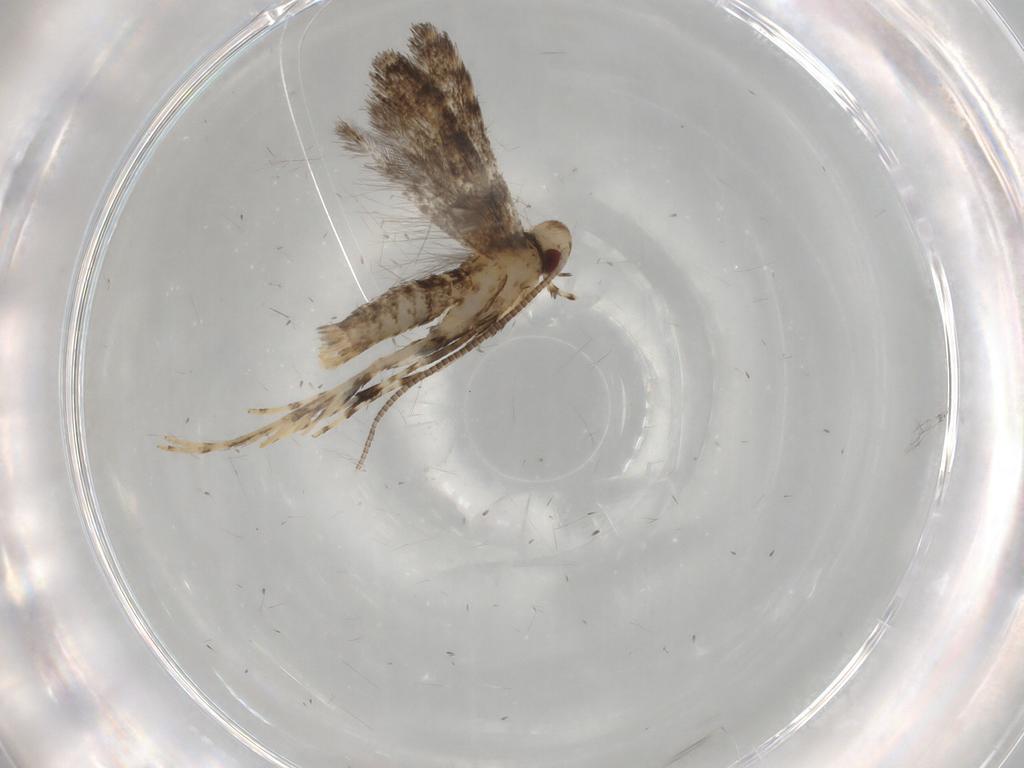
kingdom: Animalia
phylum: Arthropoda
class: Insecta
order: Lepidoptera
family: Gracillariidae
